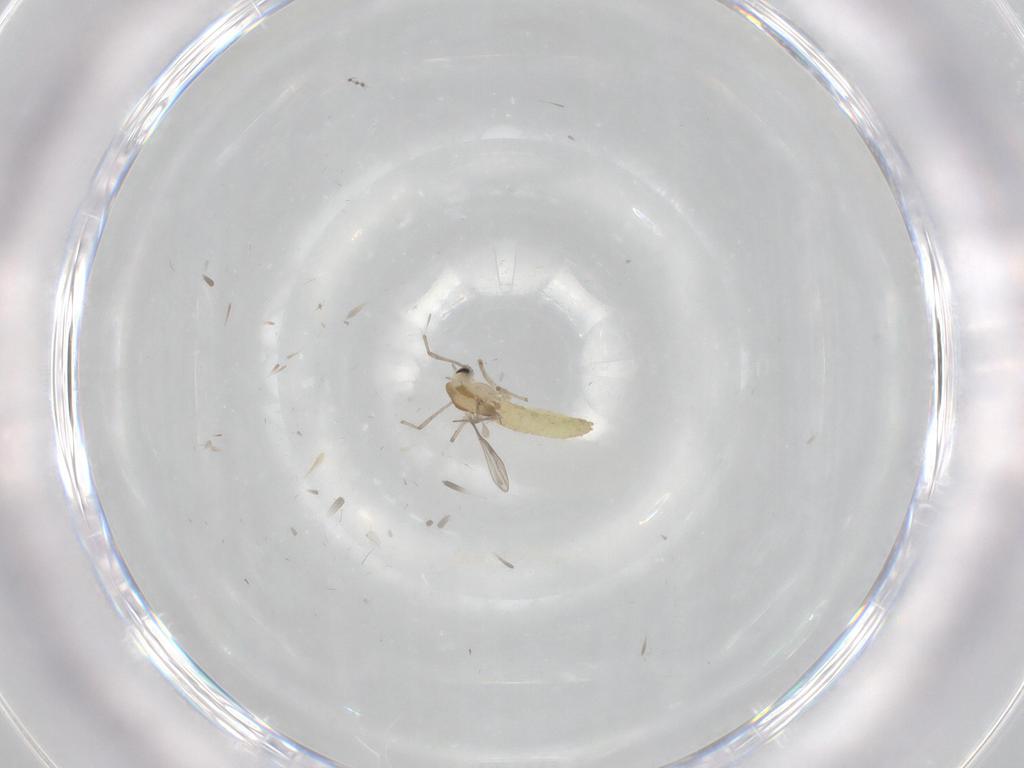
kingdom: Animalia
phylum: Arthropoda
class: Insecta
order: Diptera
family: Chironomidae
